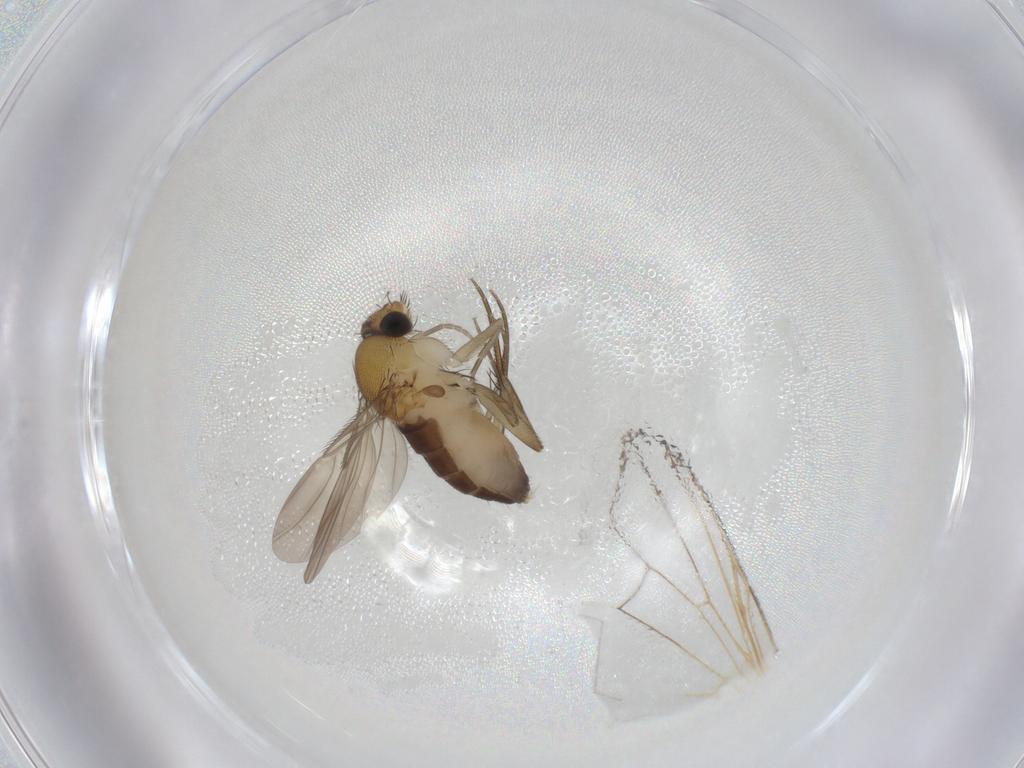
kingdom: Animalia
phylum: Arthropoda
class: Insecta
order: Diptera
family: Phoridae
